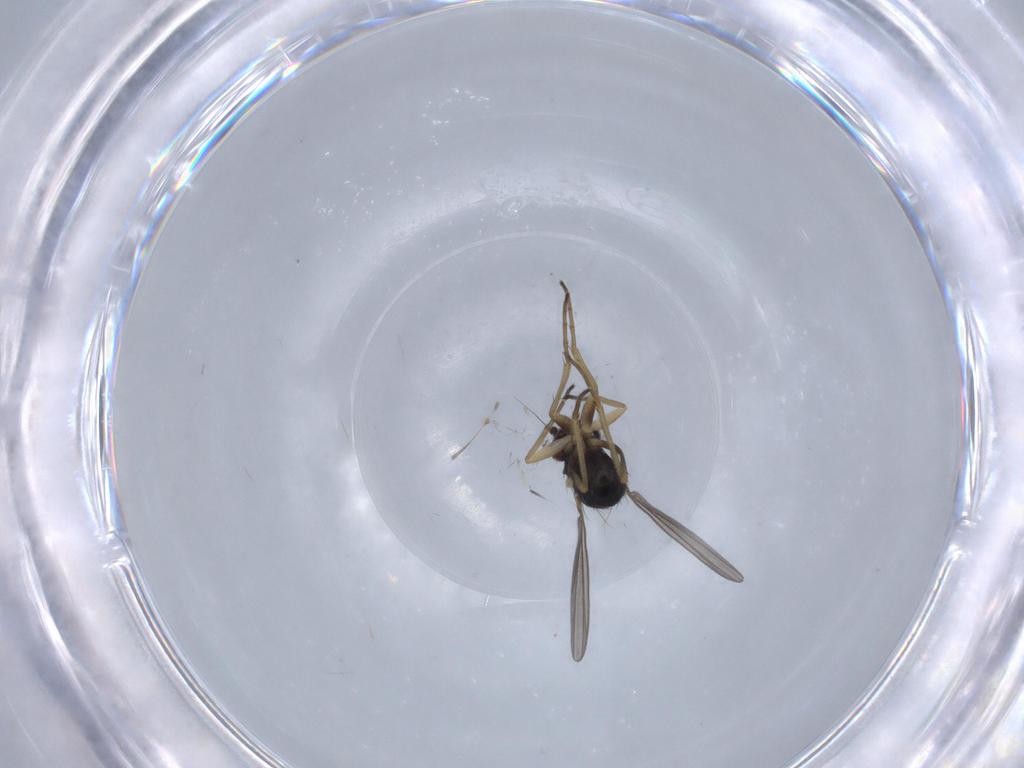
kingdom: Animalia
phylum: Arthropoda
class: Insecta
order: Diptera
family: Dolichopodidae
